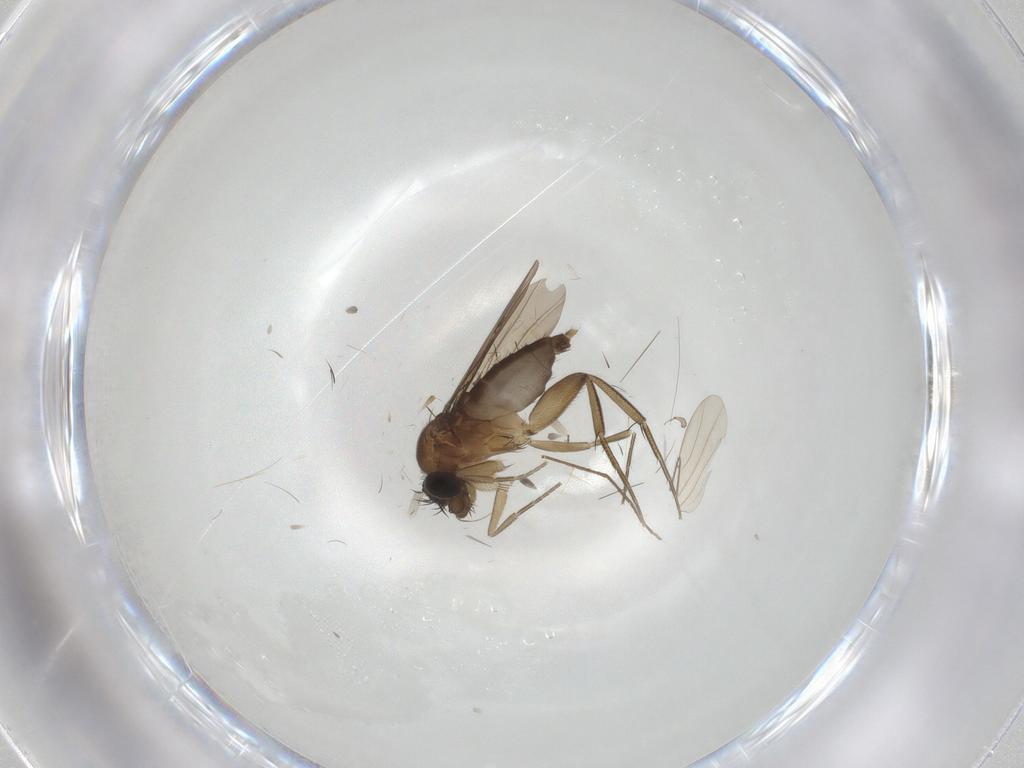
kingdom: Animalia
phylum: Arthropoda
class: Insecta
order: Diptera
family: Phoridae
